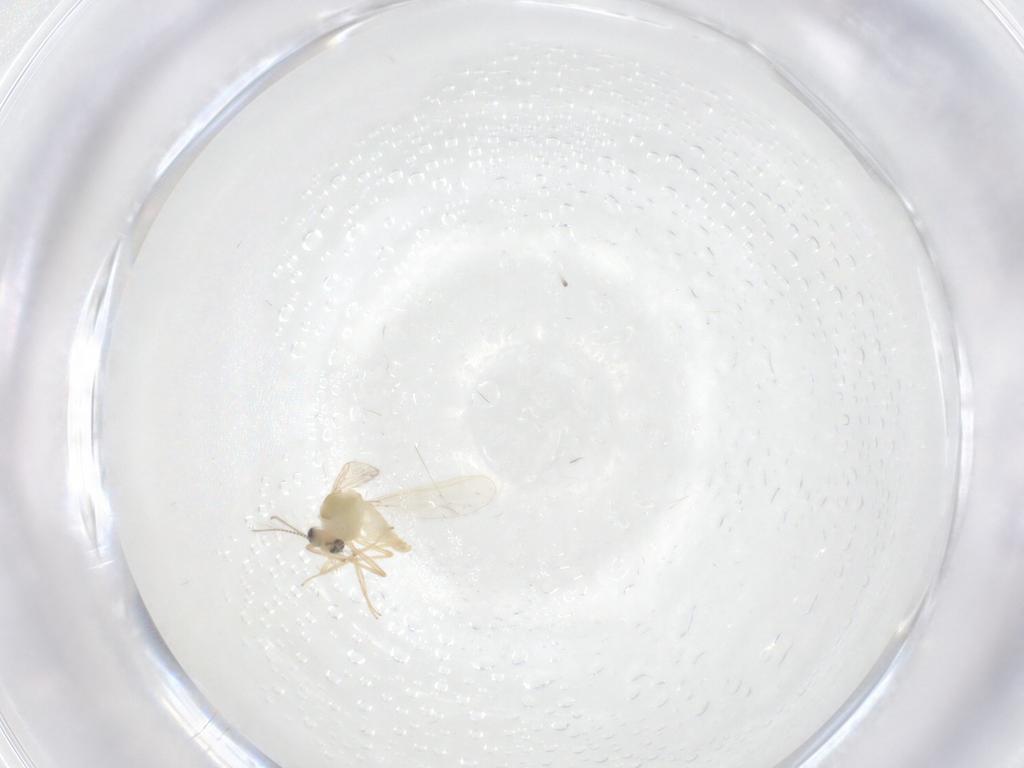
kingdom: Animalia
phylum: Arthropoda
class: Insecta
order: Diptera
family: Chironomidae
